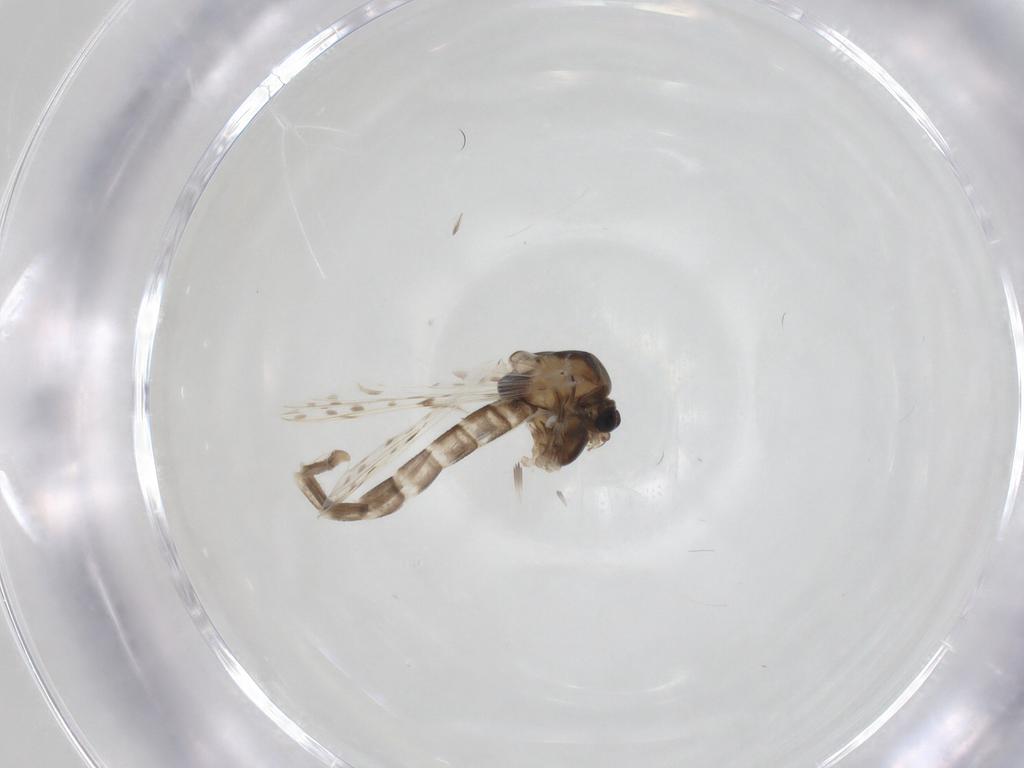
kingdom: Animalia
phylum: Arthropoda
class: Insecta
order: Diptera
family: Chironomidae
